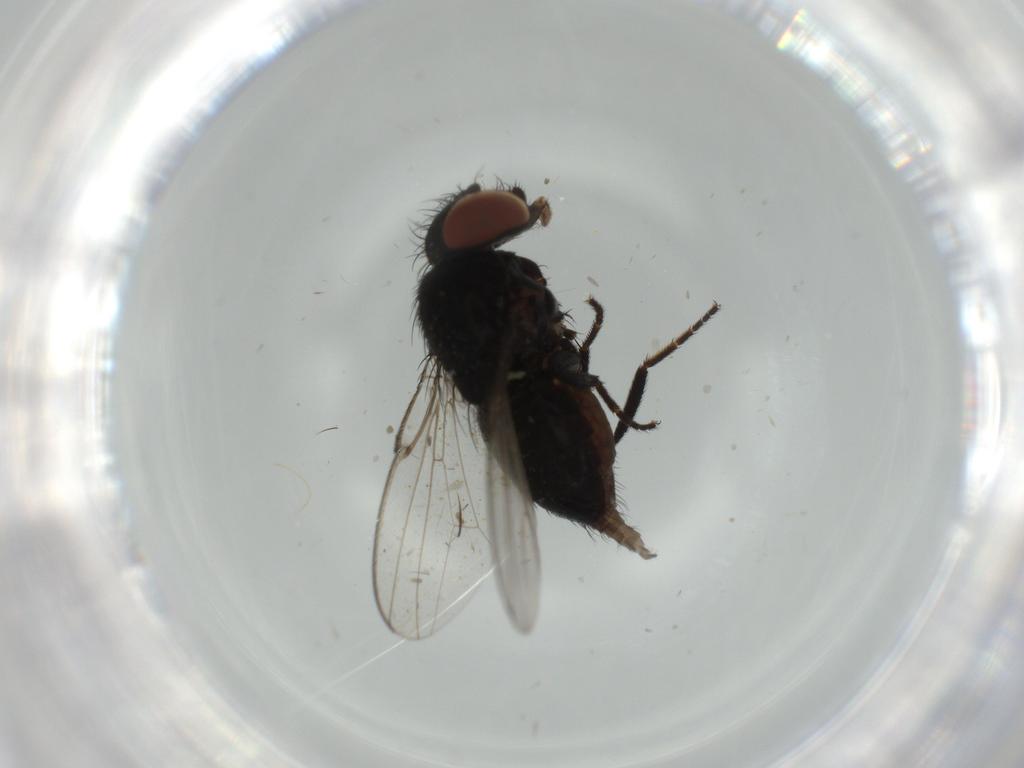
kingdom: Animalia
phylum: Arthropoda
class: Insecta
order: Diptera
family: Milichiidae
